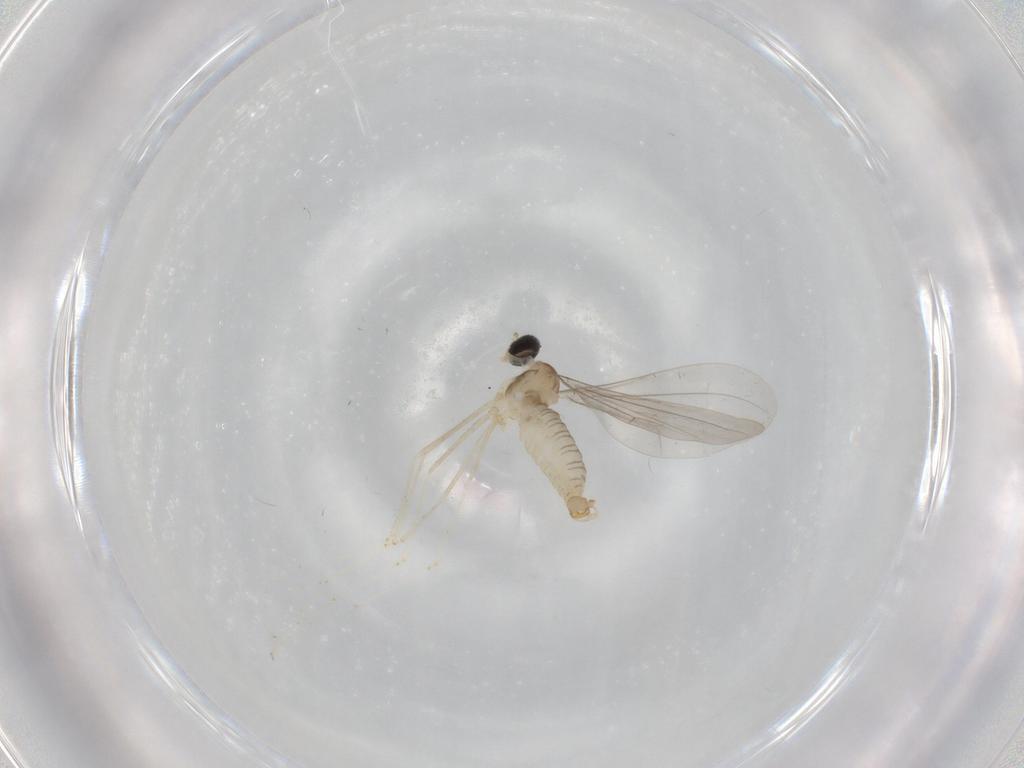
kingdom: Animalia
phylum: Arthropoda
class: Insecta
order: Diptera
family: Cecidomyiidae
